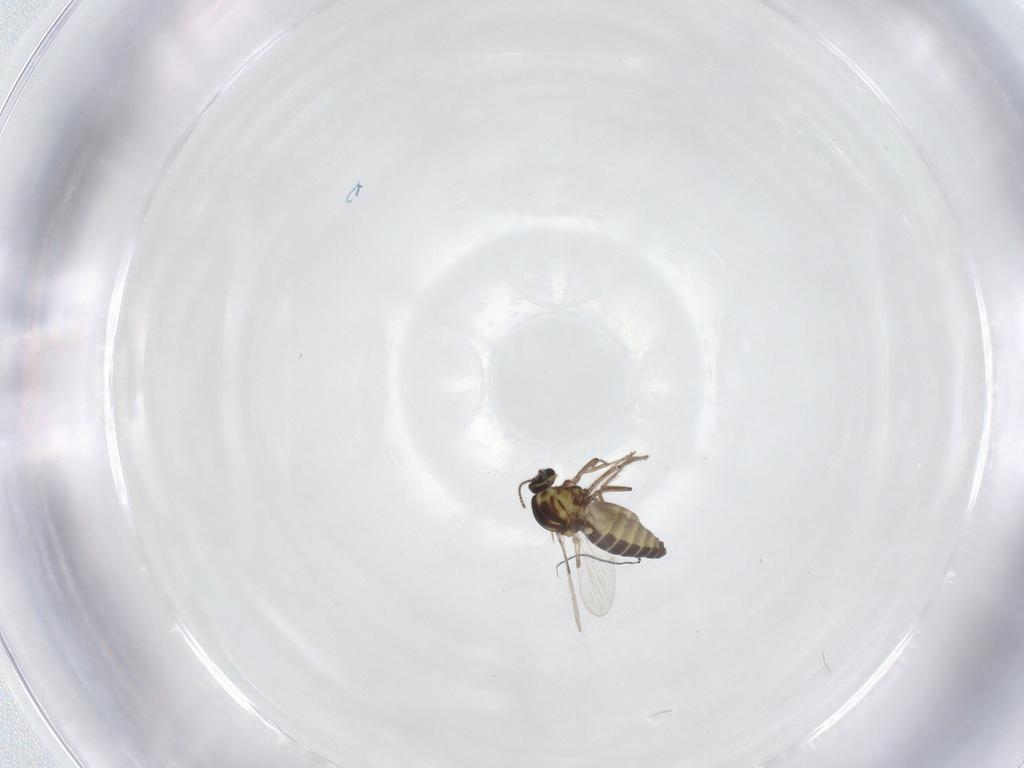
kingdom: Animalia
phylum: Arthropoda
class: Insecta
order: Diptera
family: Ceratopogonidae
